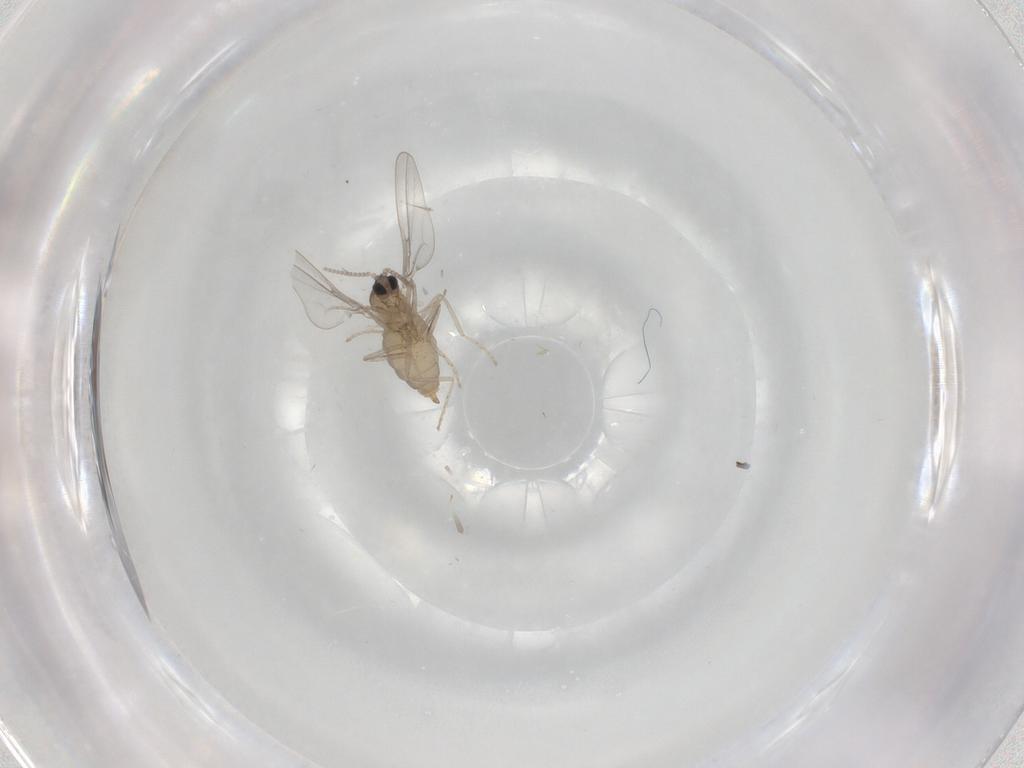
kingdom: Animalia
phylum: Arthropoda
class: Insecta
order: Diptera
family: Cecidomyiidae
